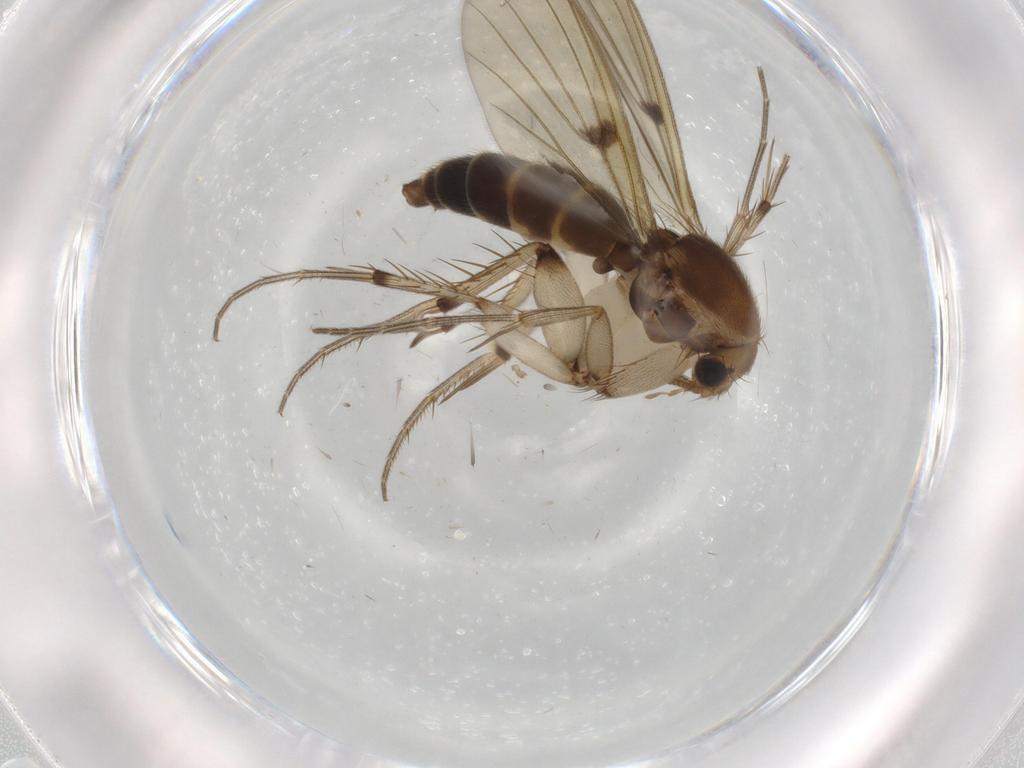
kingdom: Animalia
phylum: Arthropoda
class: Insecta
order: Diptera
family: Mycetophilidae
